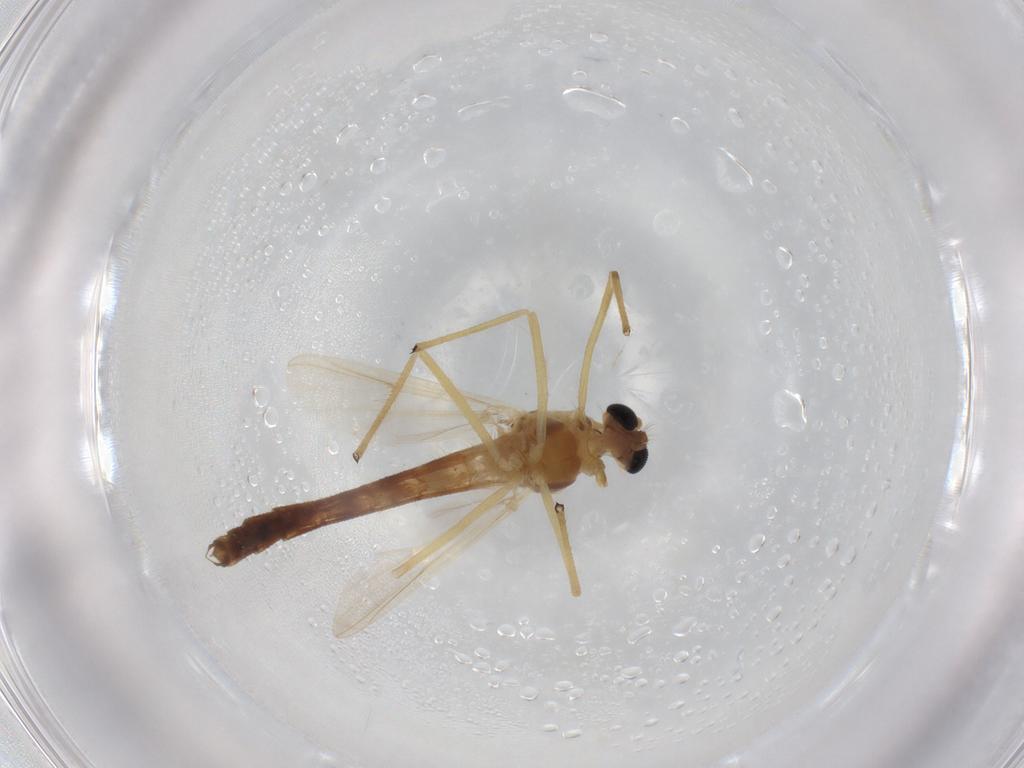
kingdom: Animalia
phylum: Arthropoda
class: Insecta
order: Diptera
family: Chironomidae
